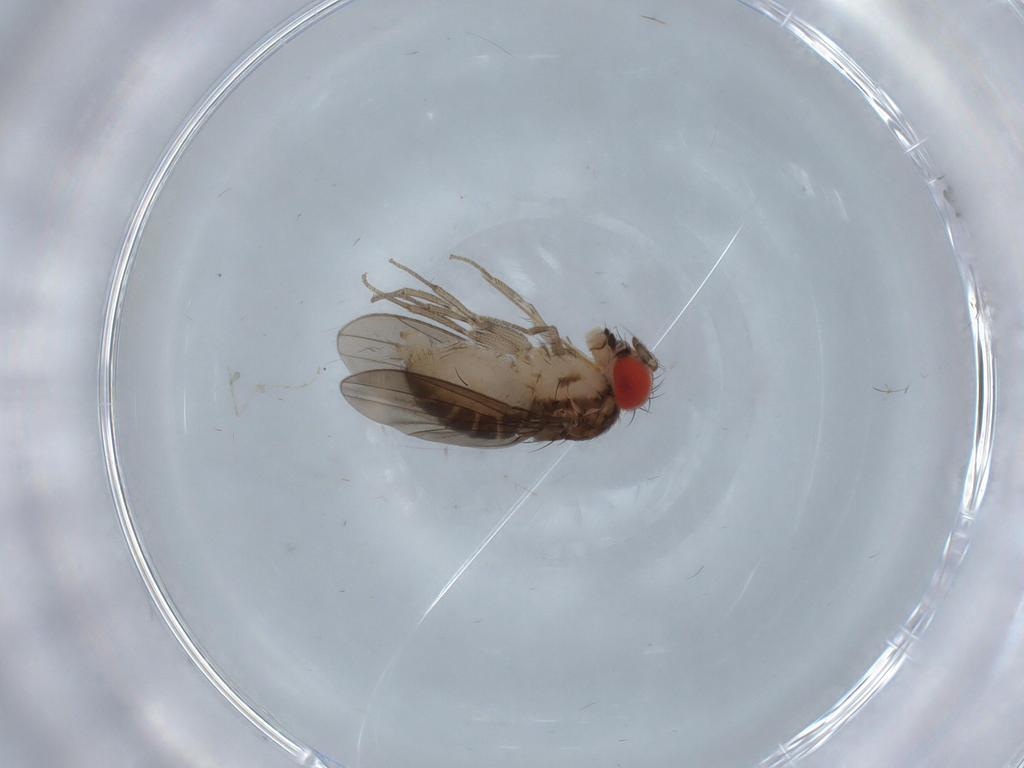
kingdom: Animalia
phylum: Arthropoda
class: Insecta
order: Diptera
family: Drosophilidae
